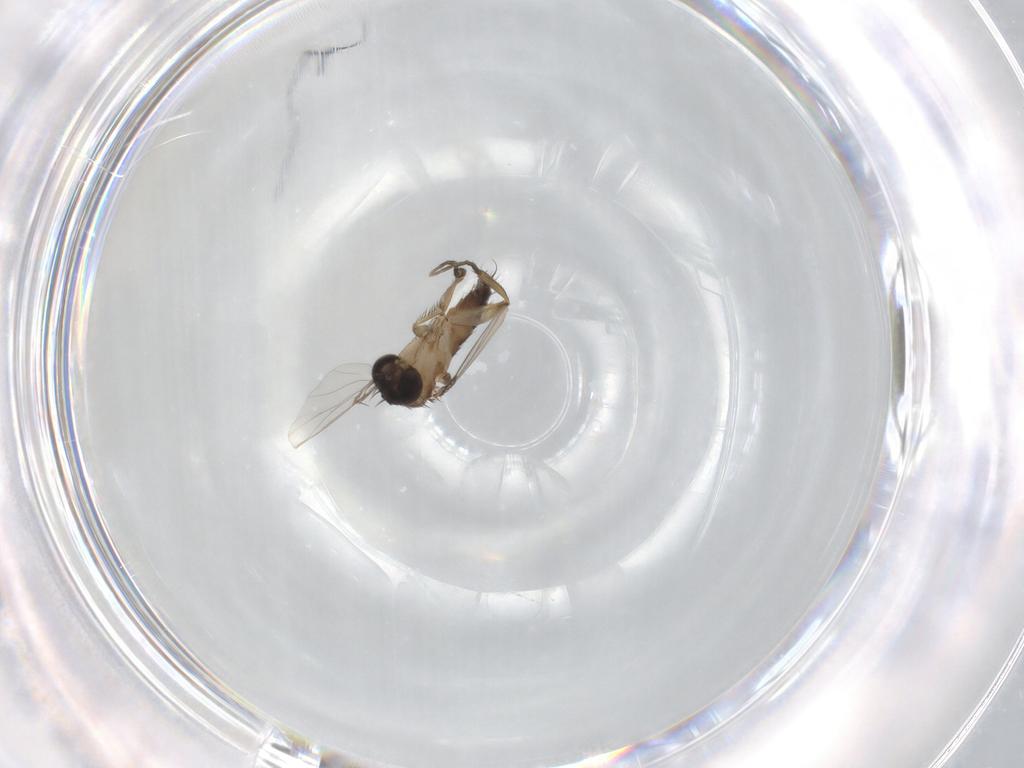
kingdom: Animalia
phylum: Arthropoda
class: Insecta
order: Diptera
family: Phoridae
